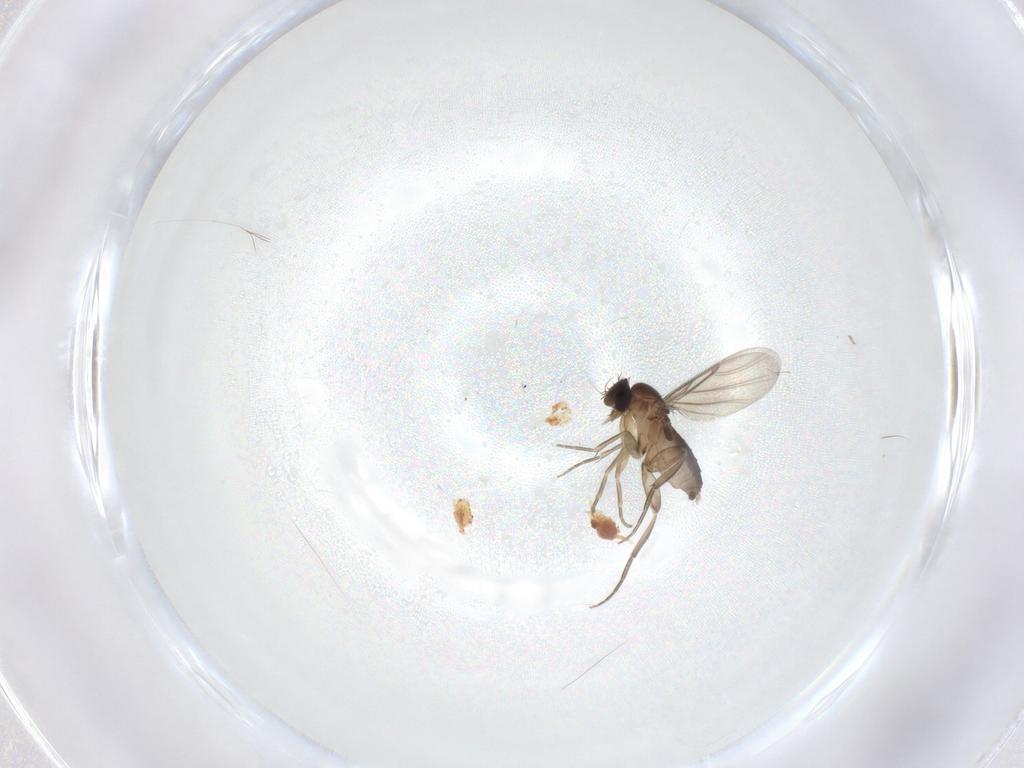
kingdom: Animalia
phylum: Arthropoda
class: Insecta
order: Diptera
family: Phoridae
